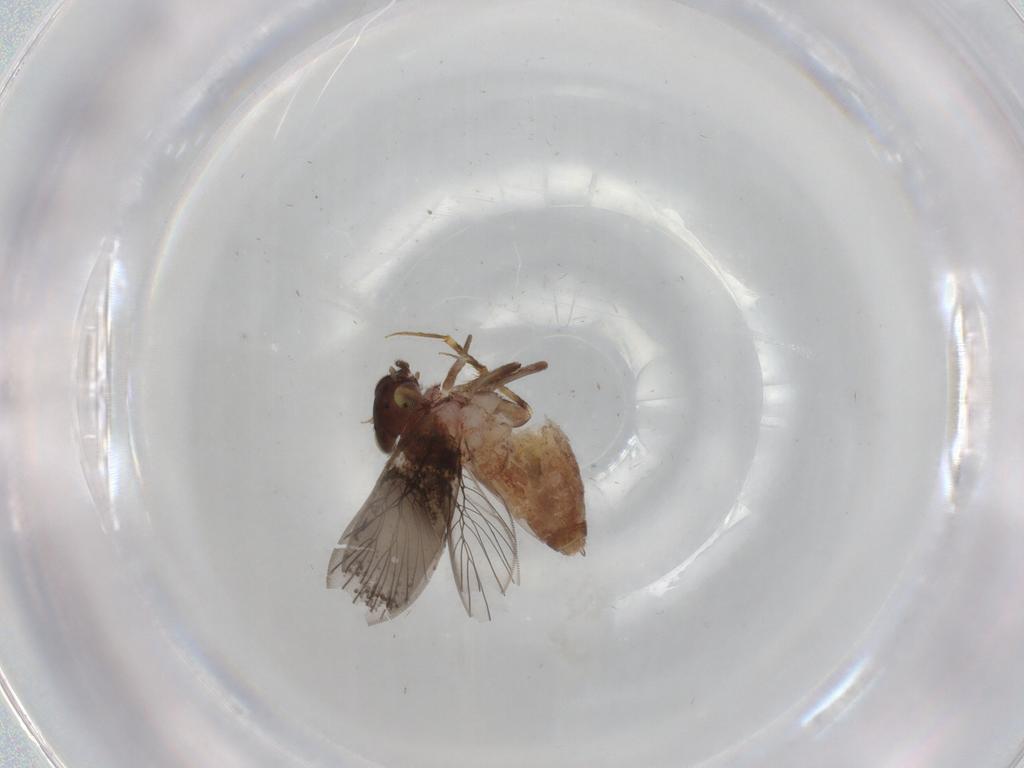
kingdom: Animalia
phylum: Arthropoda
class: Insecta
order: Psocodea
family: Lepidopsocidae
